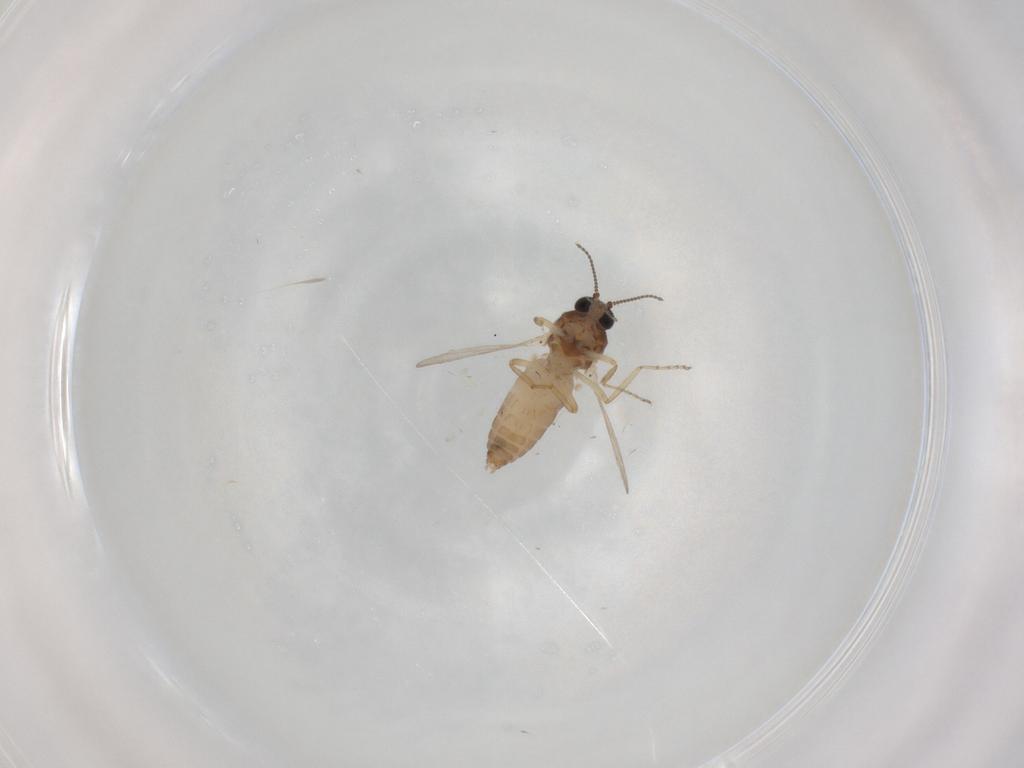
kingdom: Animalia
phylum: Arthropoda
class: Insecta
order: Diptera
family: Ceratopogonidae
